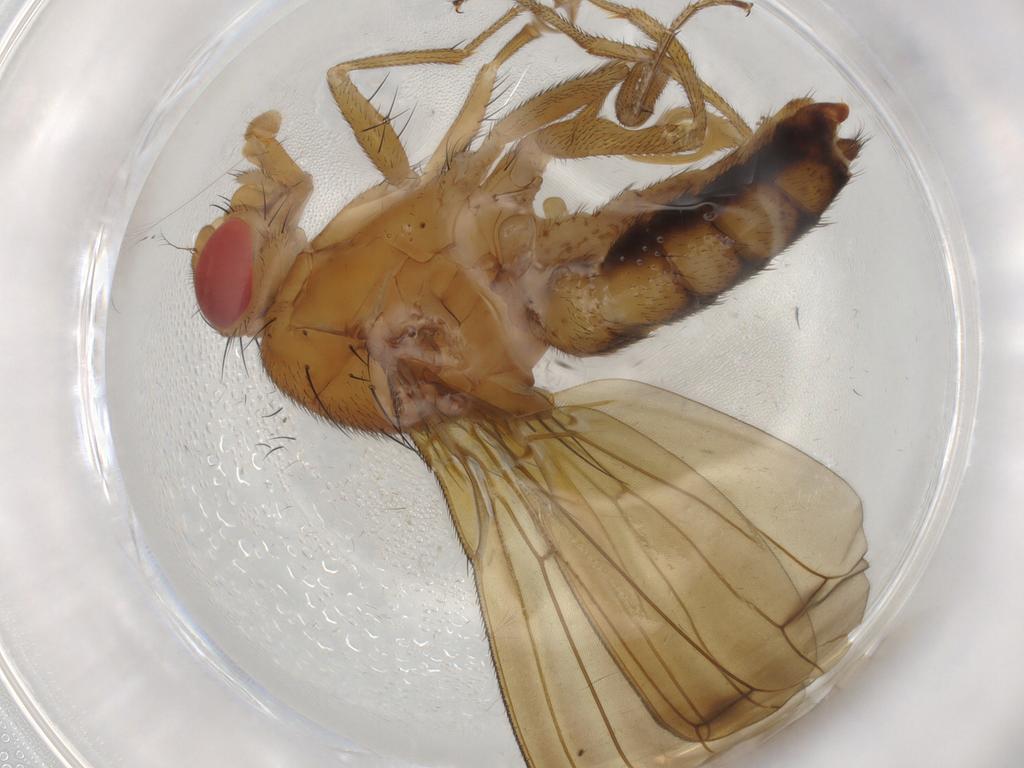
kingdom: Animalia
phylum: Arthropoda
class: Insecta
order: Diptera
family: Drosophilidae
